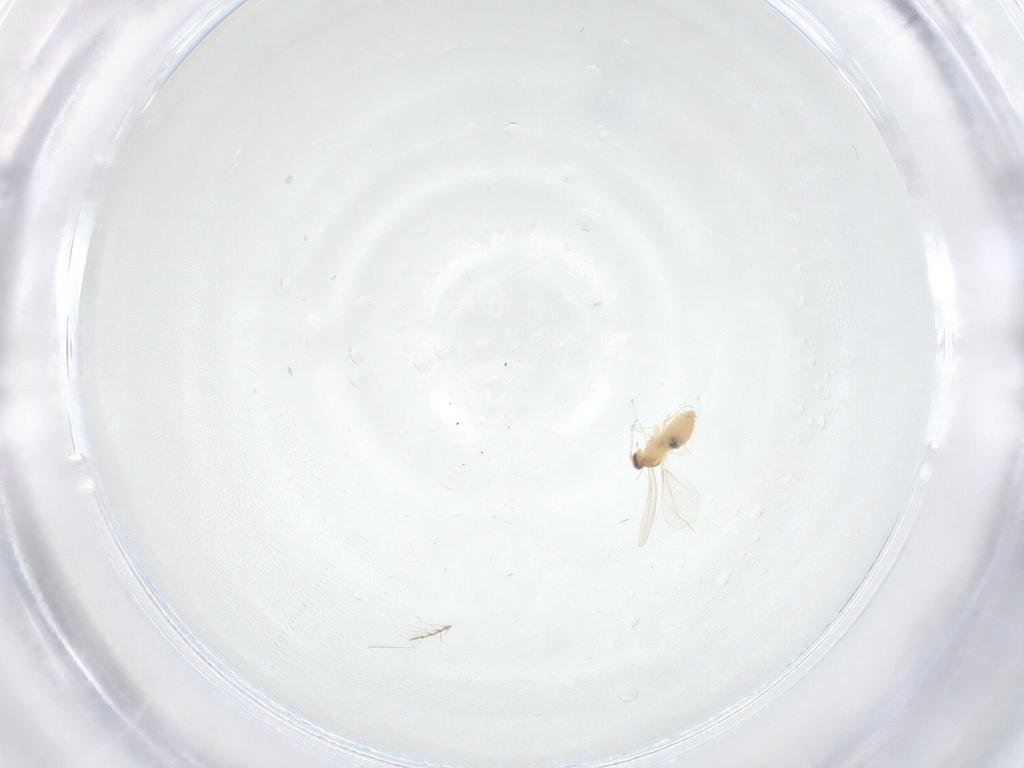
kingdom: Animalia
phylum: Arthropoda
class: Insecta
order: Diptera
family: Cecidomyiidae
